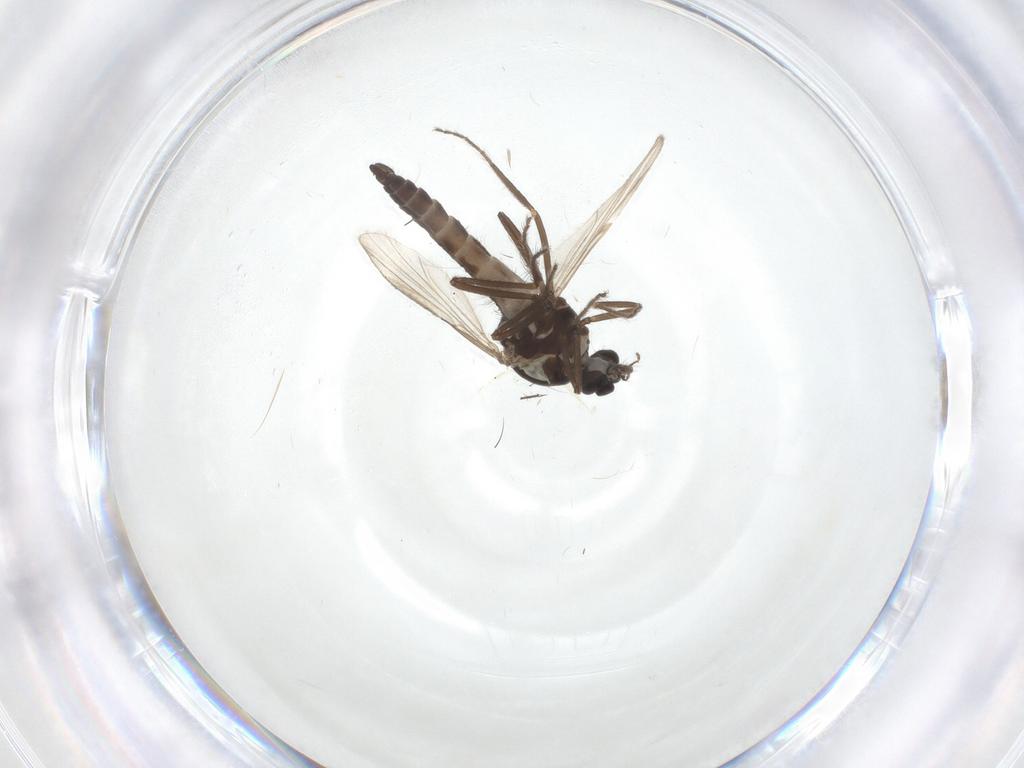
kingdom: Animalia
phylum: Arthropoda
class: Insecta
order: Diptera
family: Ceratopogonidae
